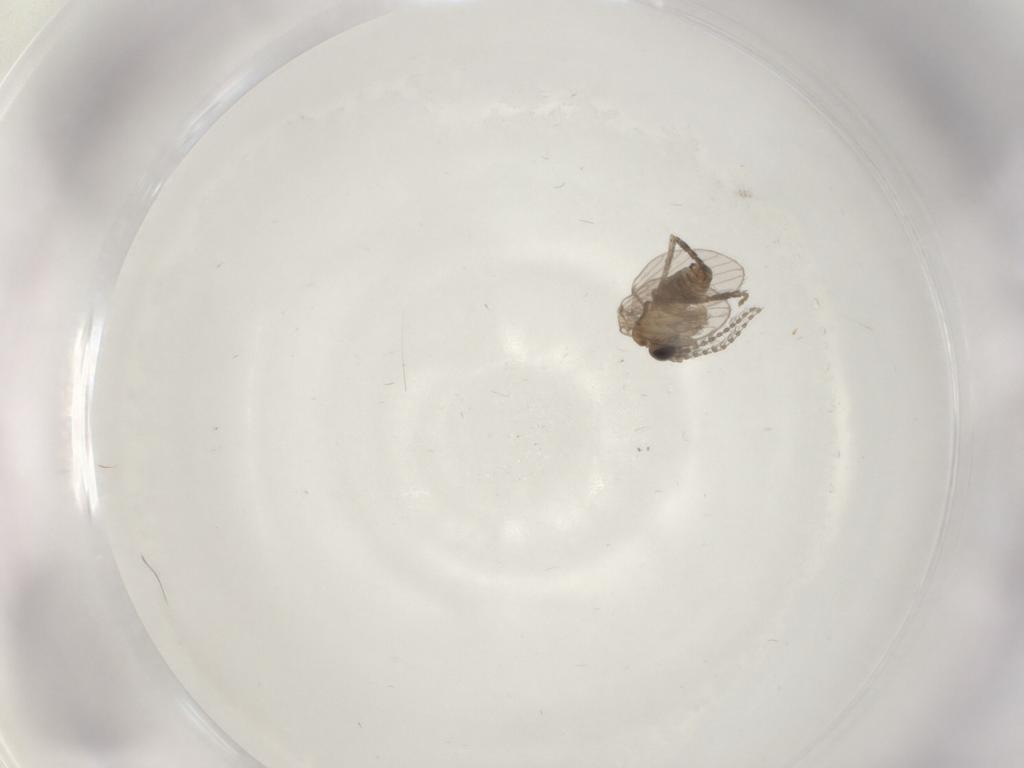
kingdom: Animalia
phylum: Arthropoda
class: Insecta
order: Diptera
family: Psychodidae
